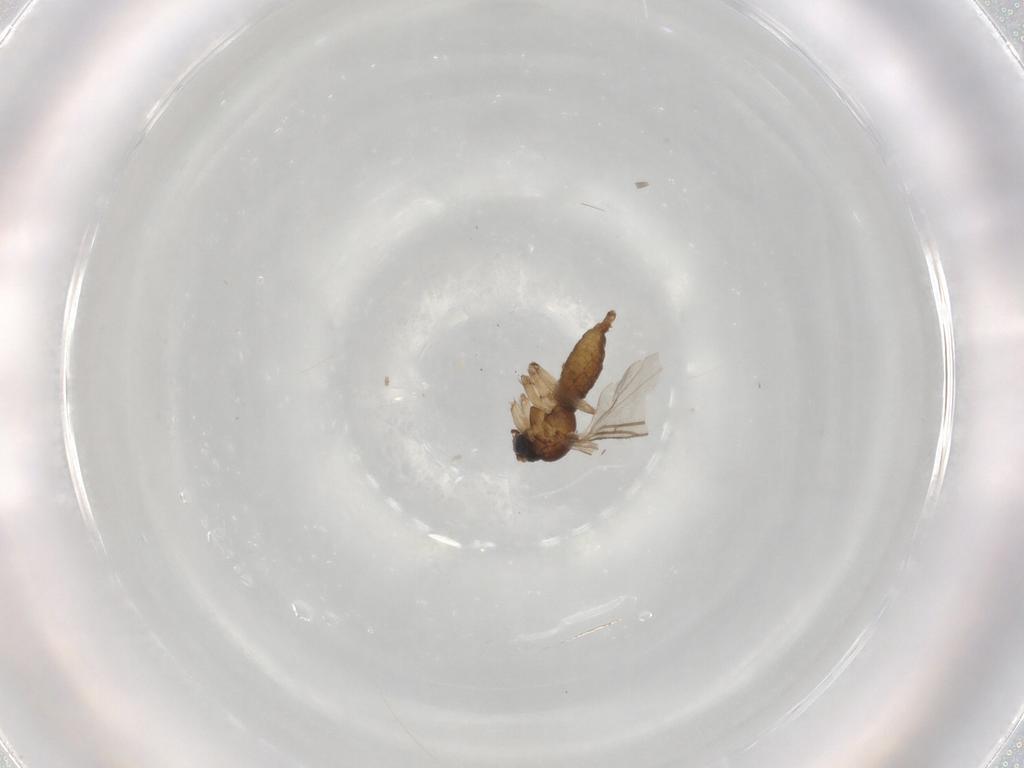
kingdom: Animalia
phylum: Arthropoda
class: Insecta
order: Diptera
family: Sciaridae
